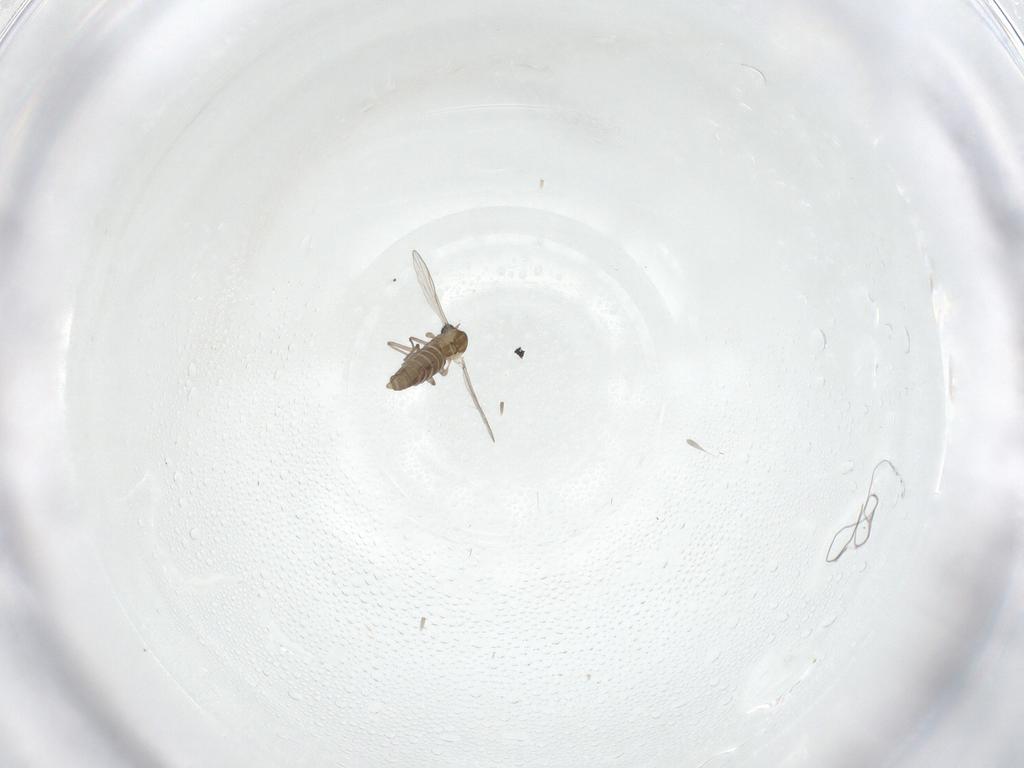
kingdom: Animalia
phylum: Arthropoda
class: Insecta
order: Diptera
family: Chironomidae
